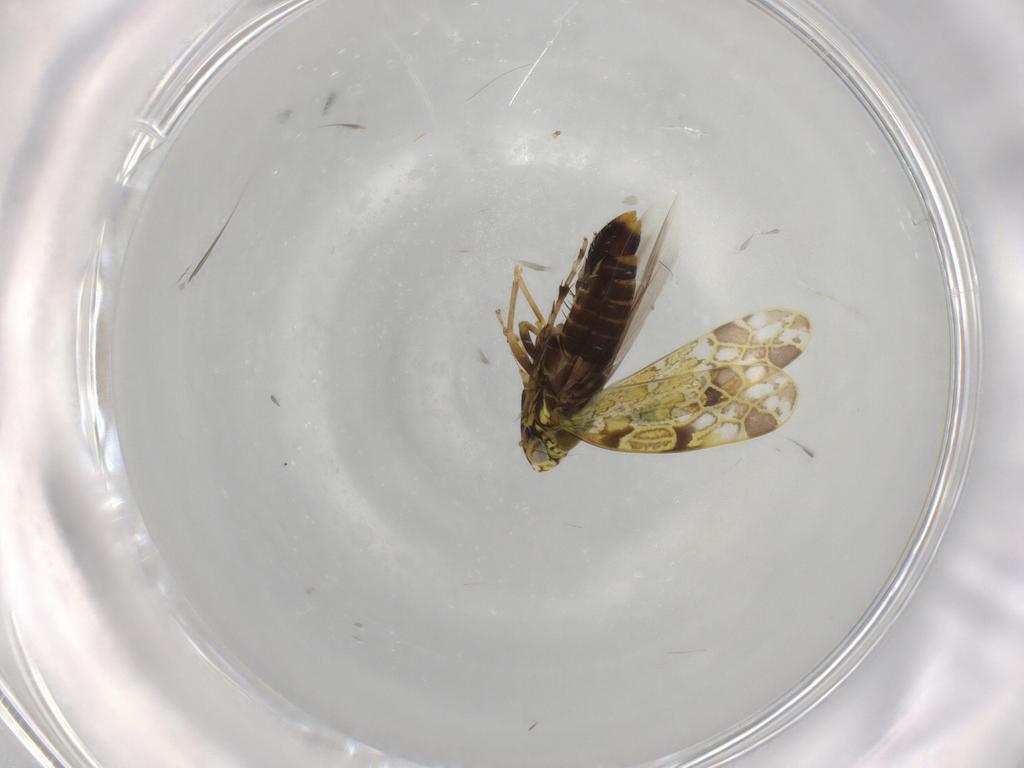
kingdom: Animalia
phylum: Arthropoda
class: Insecta
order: Hemiptera
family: Cicadellidae
